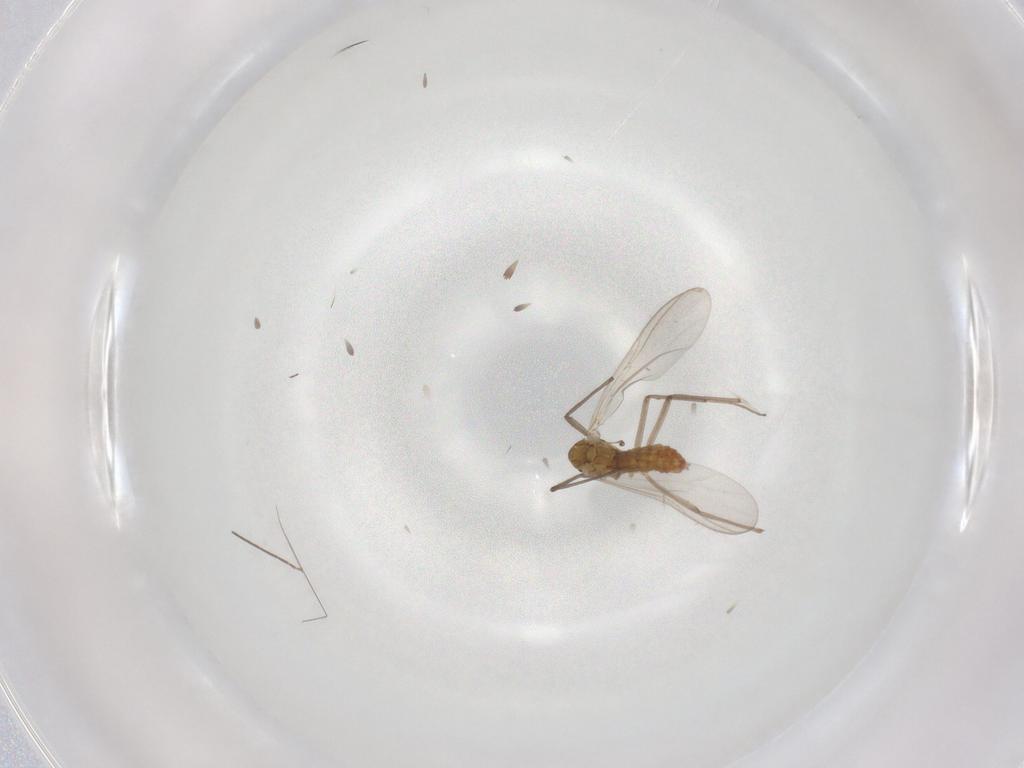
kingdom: Animalia
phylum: Arthropoda
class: Insecta
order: Diptera
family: Chironomidae
